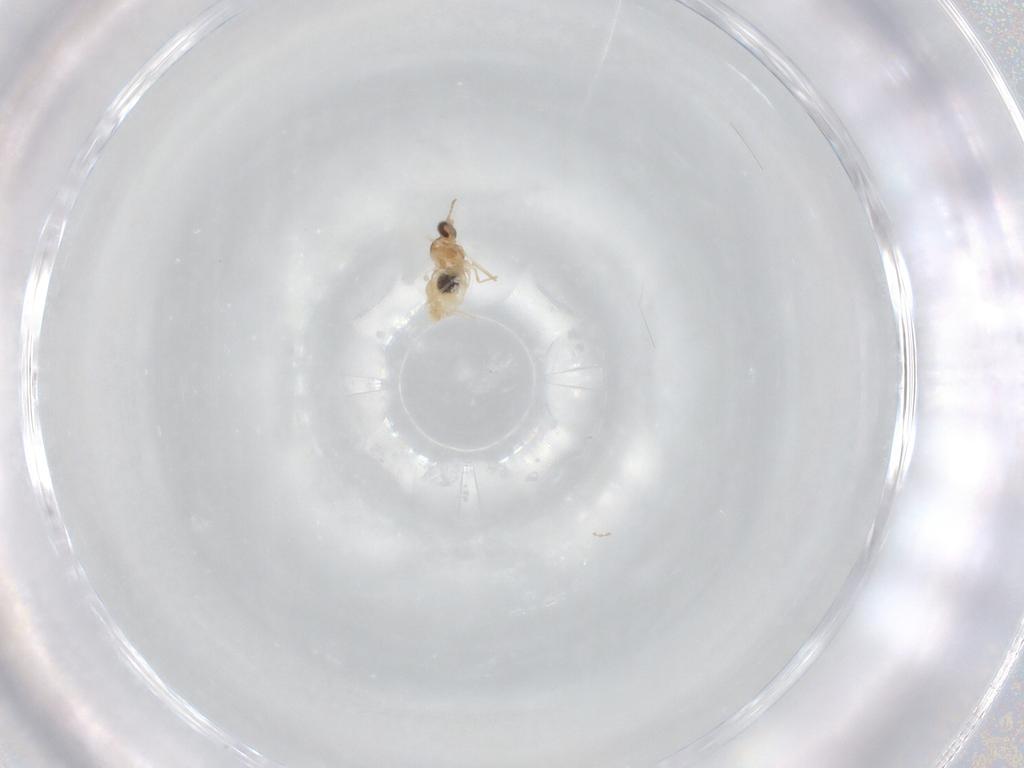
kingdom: Animalia
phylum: Arthropoda
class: Insecta
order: Diptera
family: Cecidomyiidae
